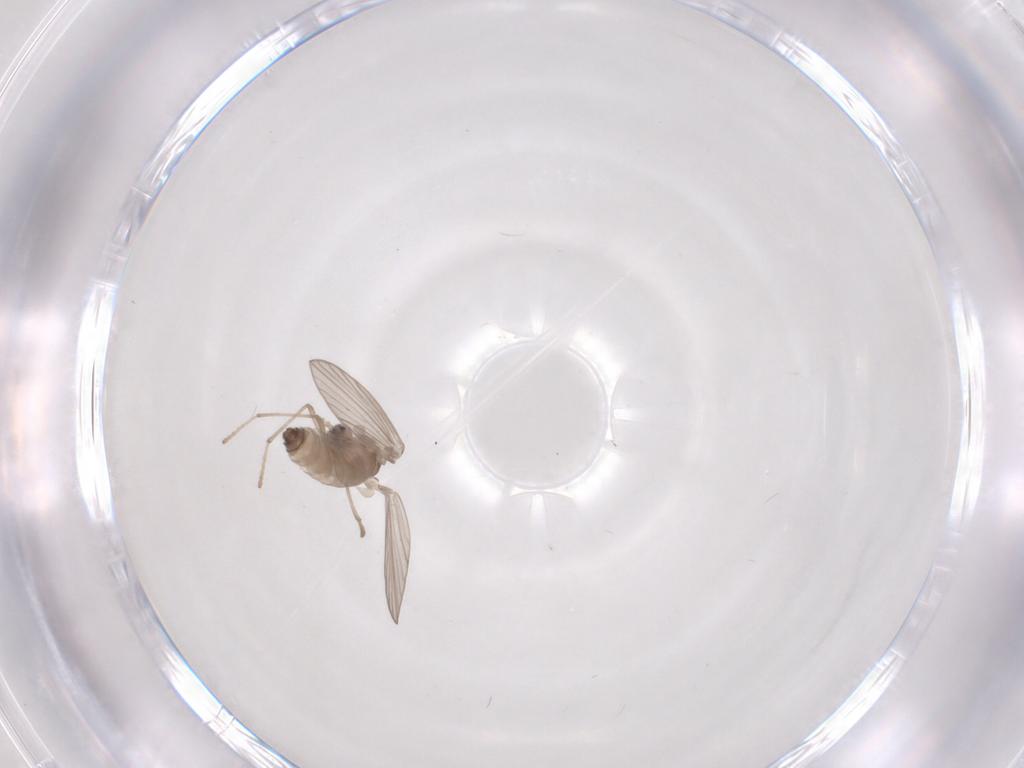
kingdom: Animalia
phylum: Arthropoda
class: Insecta
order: Diptera
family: Psychodidae
